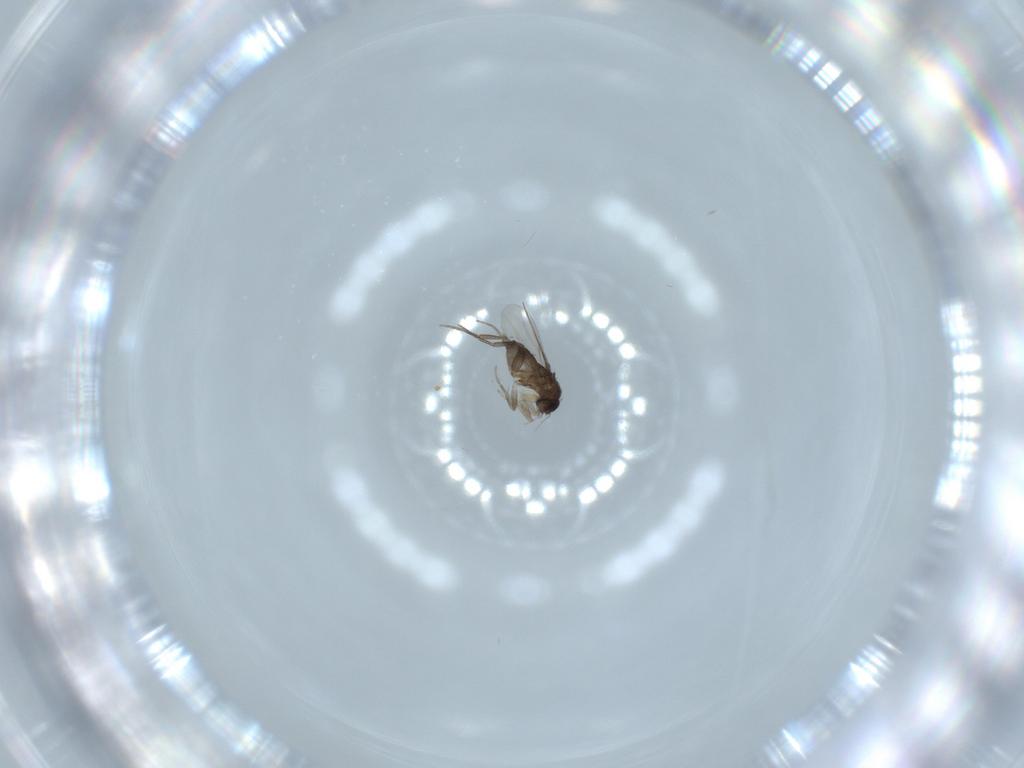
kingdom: Animalia
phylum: Arthropoda
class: Insecta
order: Diptera
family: Phoridae
